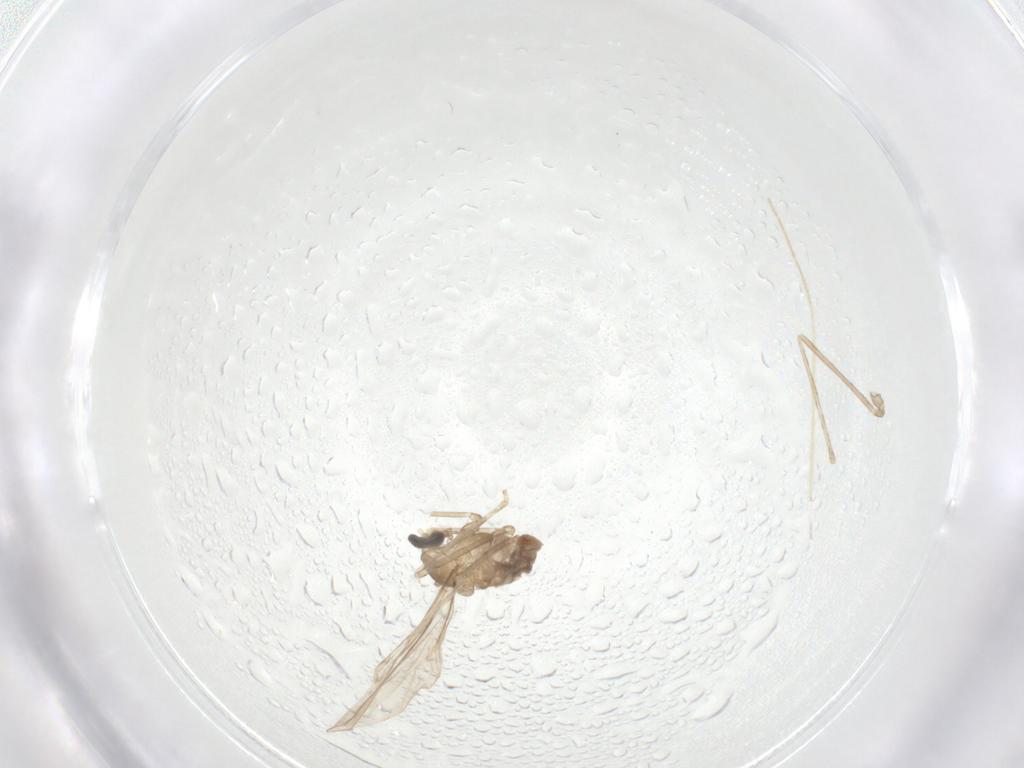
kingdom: Animalia
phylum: Arthropoda
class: Insecta
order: Diptera
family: Cecidomyiidae
